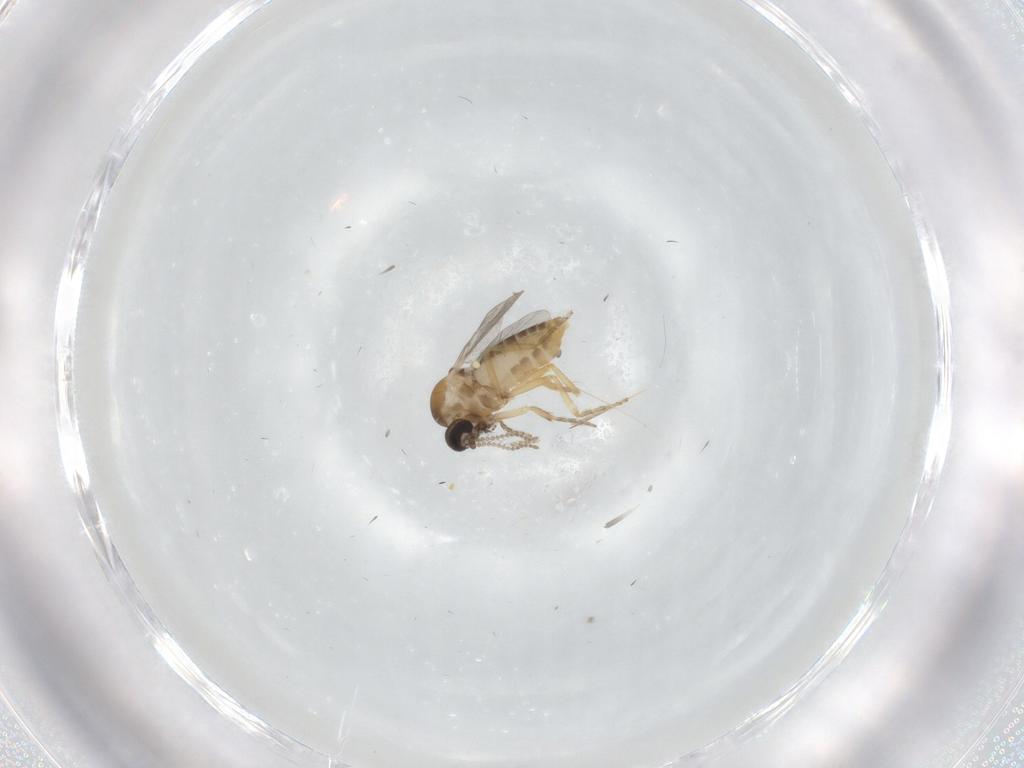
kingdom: Animalia
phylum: Arthropoda
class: Insecta
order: Diptera
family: Ceratopogonidae
